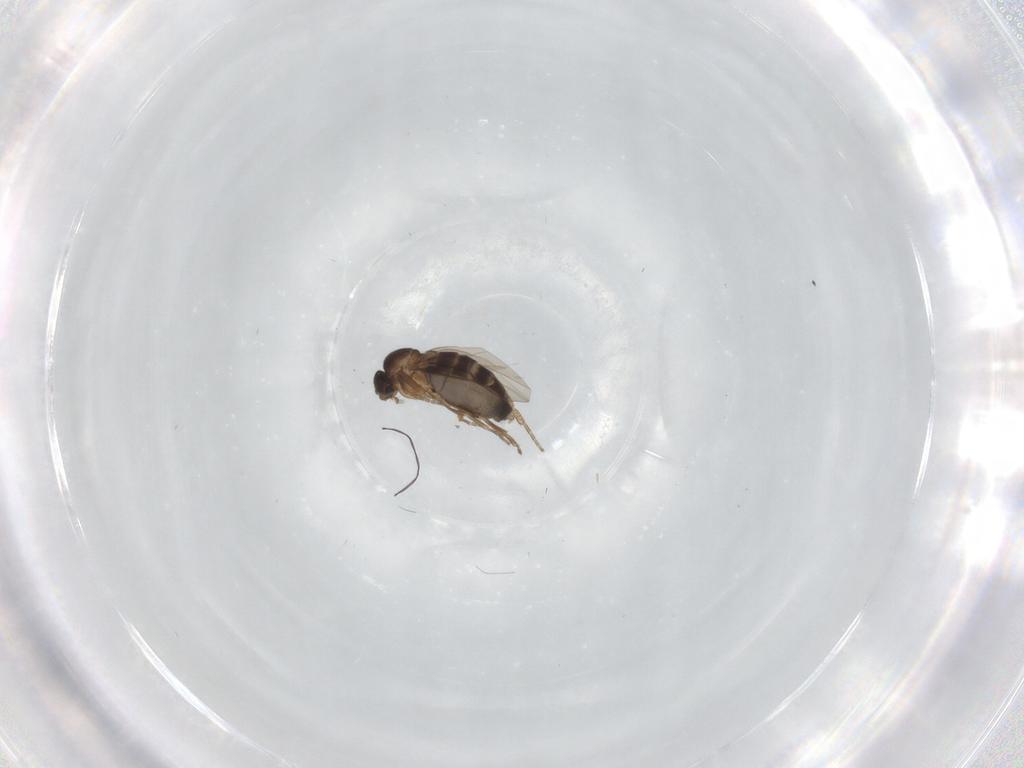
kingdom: Animalia
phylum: Arthropoda
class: Insecta
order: Diptera
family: Phoridae
